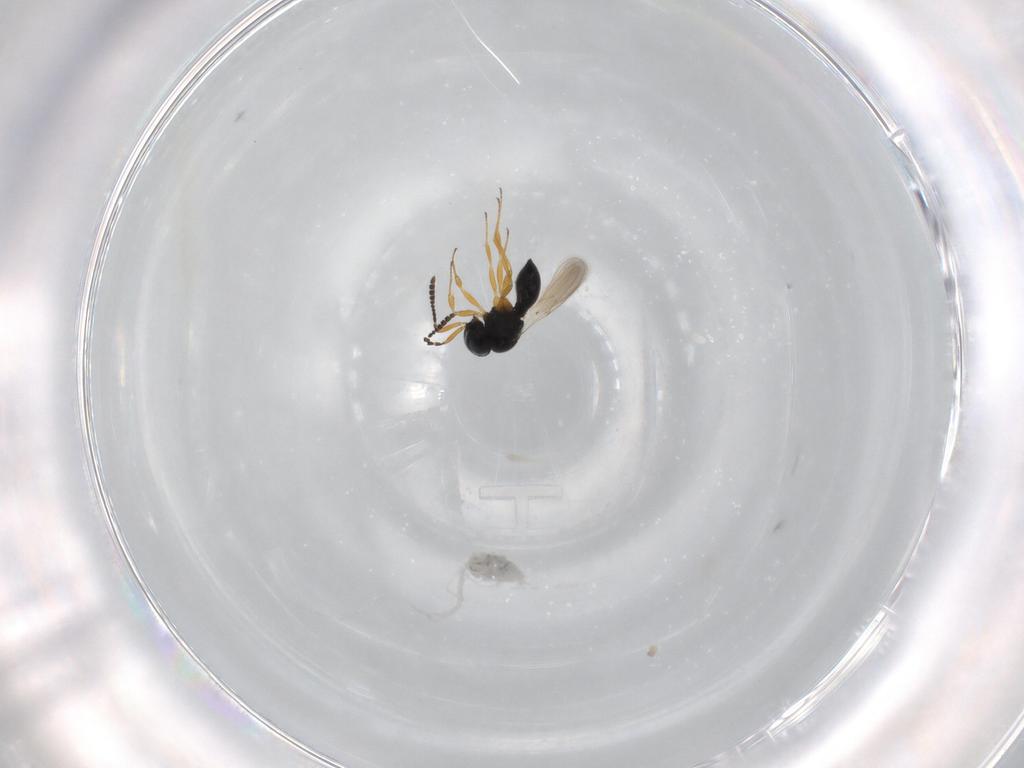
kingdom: Animalia
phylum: Arthropoda
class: Insecta
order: Hymenoptera
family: Scelionidae
